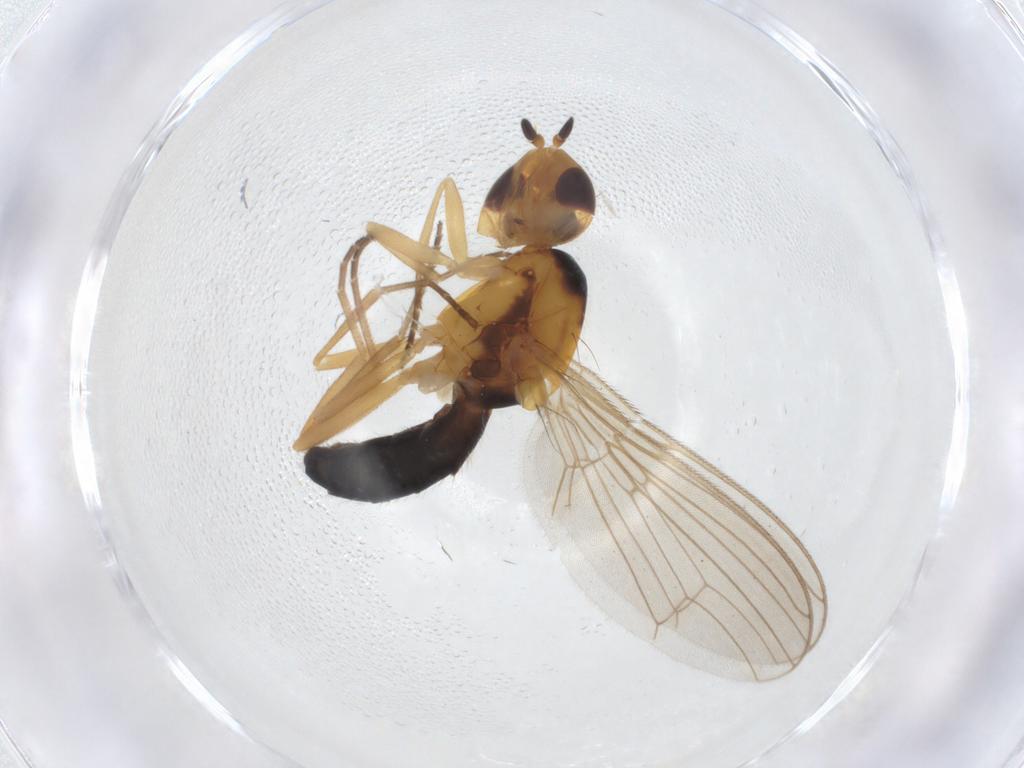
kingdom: Animalia
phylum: Arthropoda
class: Insecta
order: Diptera
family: Psilidae
